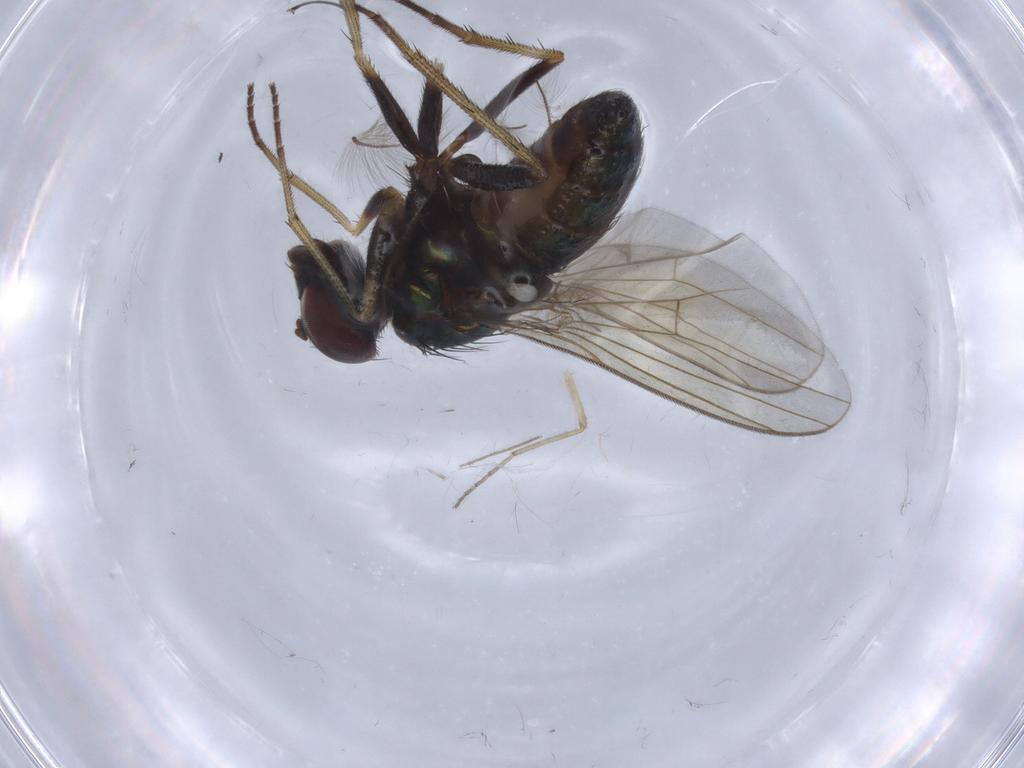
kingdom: Animalia
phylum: Arthropoda
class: Insecta
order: Diptera
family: Chironomidae
